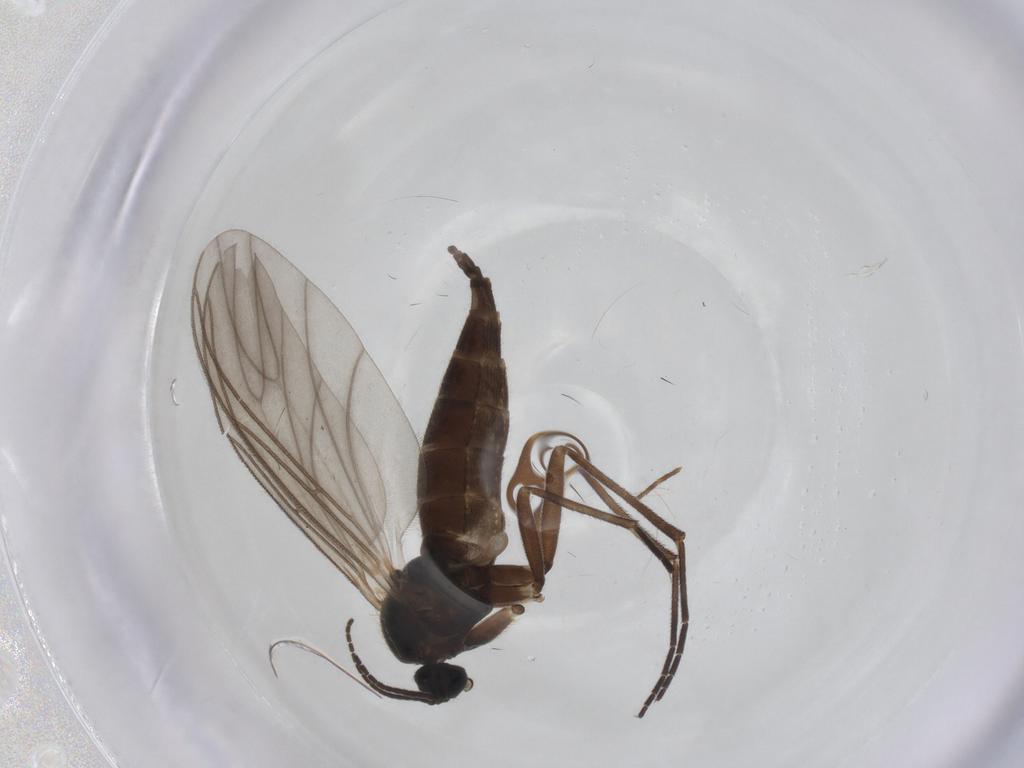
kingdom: Animalia
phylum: Arthropoda
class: Insecta
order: Diptera
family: Sciaridae
